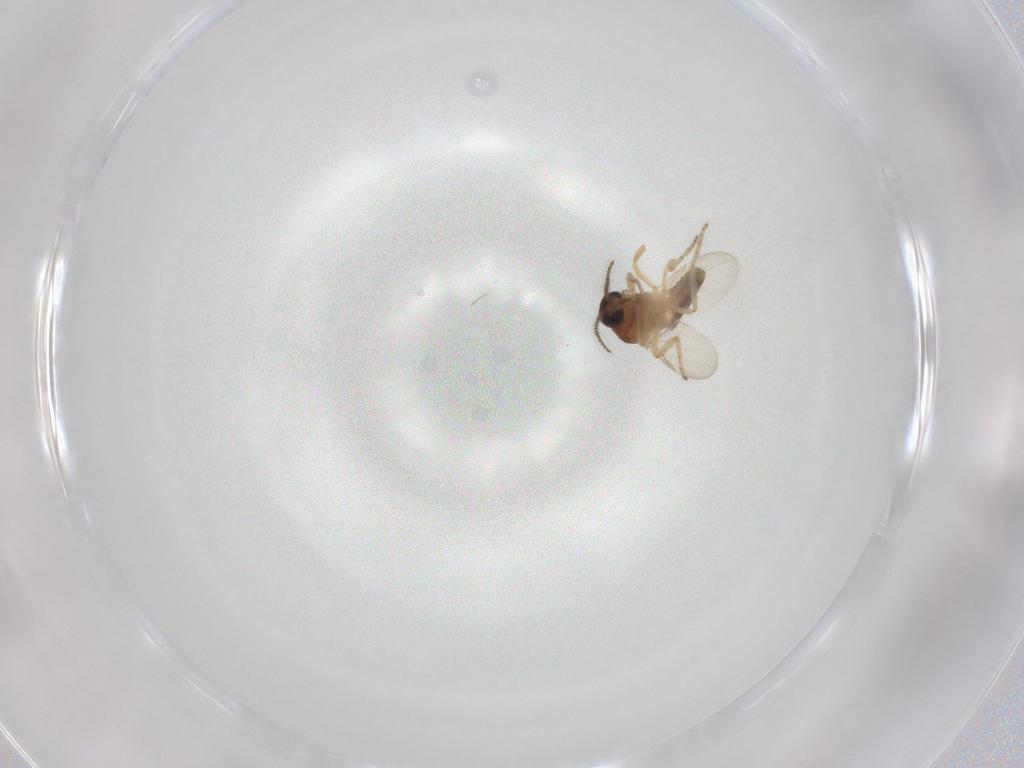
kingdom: Animalia
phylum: Arthropoda
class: Insecta
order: Diptera
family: Ceratopogonidae
